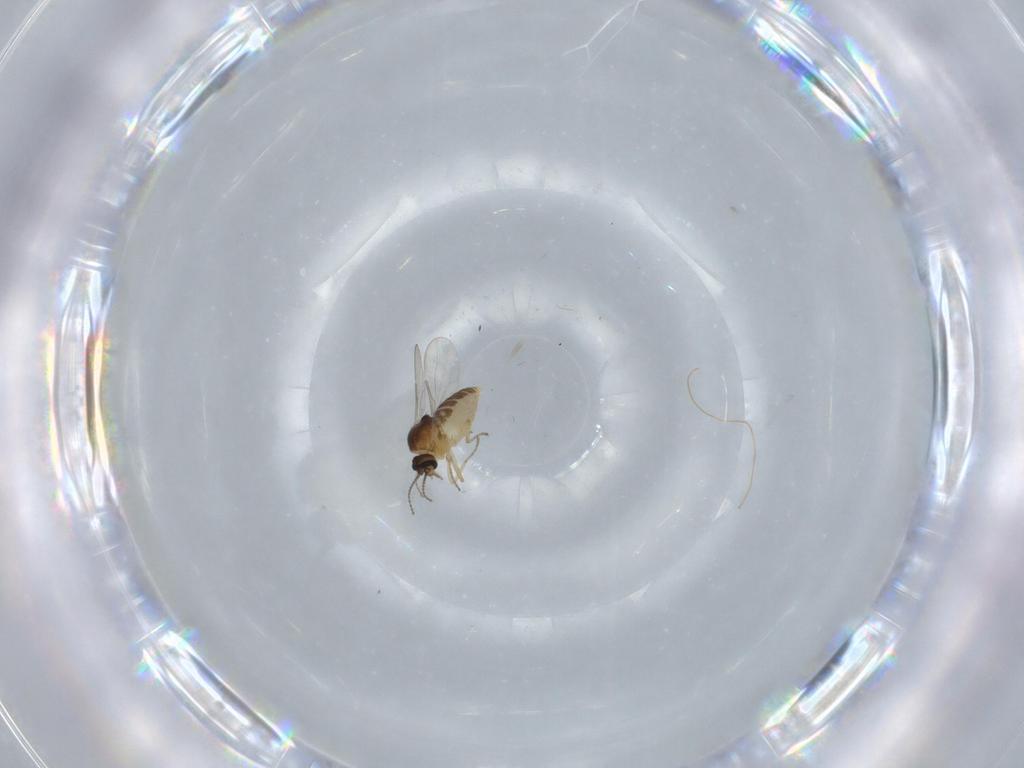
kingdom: Animalia
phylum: Arthropoda
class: Insecta
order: Diptera
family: Ceratopogonidae
